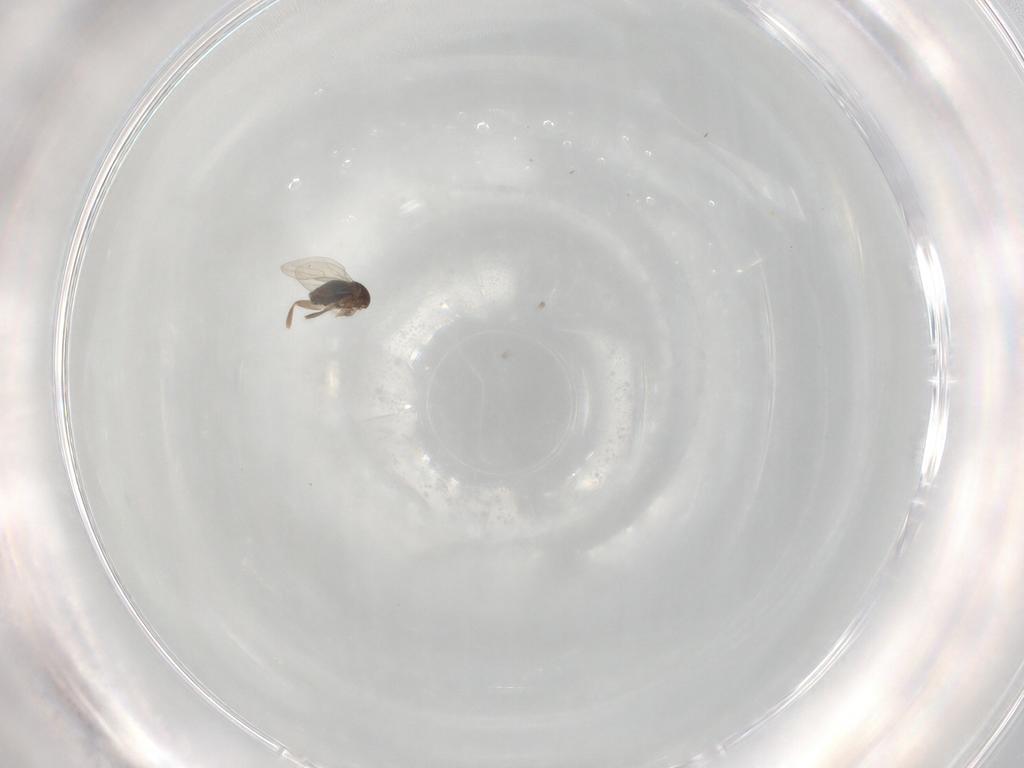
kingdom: Animalia
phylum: Arthropoda
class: Insecta
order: Diptera
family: Phoridae
